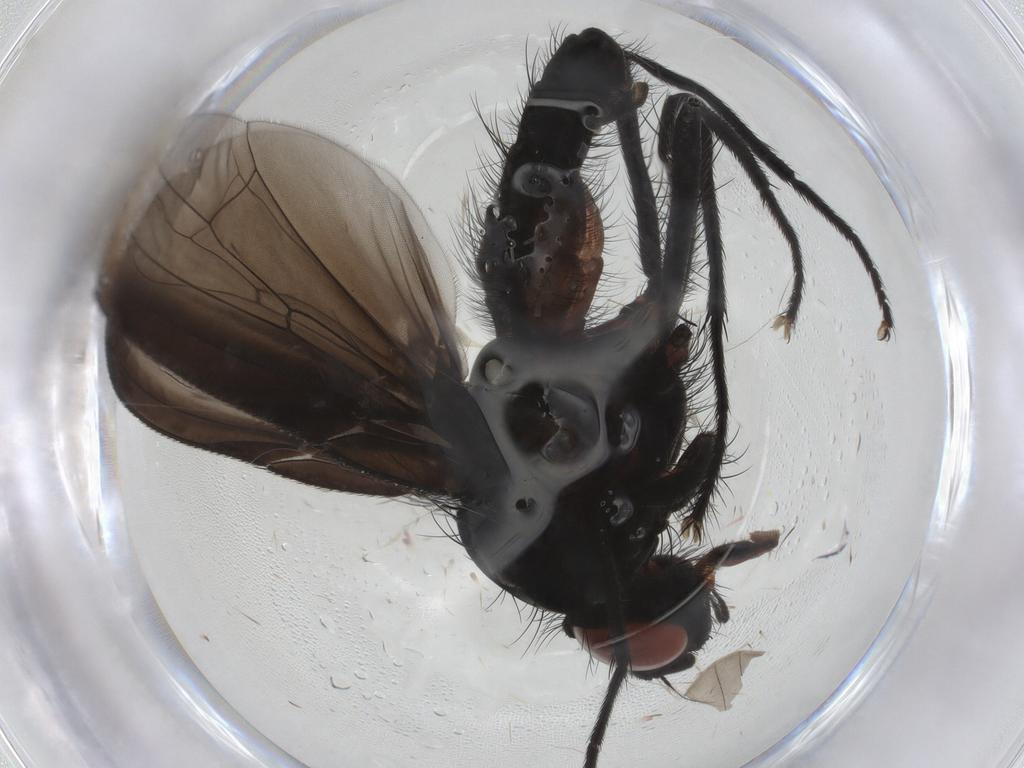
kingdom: Animalia
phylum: Arthropoda
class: Insecta
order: Diptera
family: Anthomyiidae
